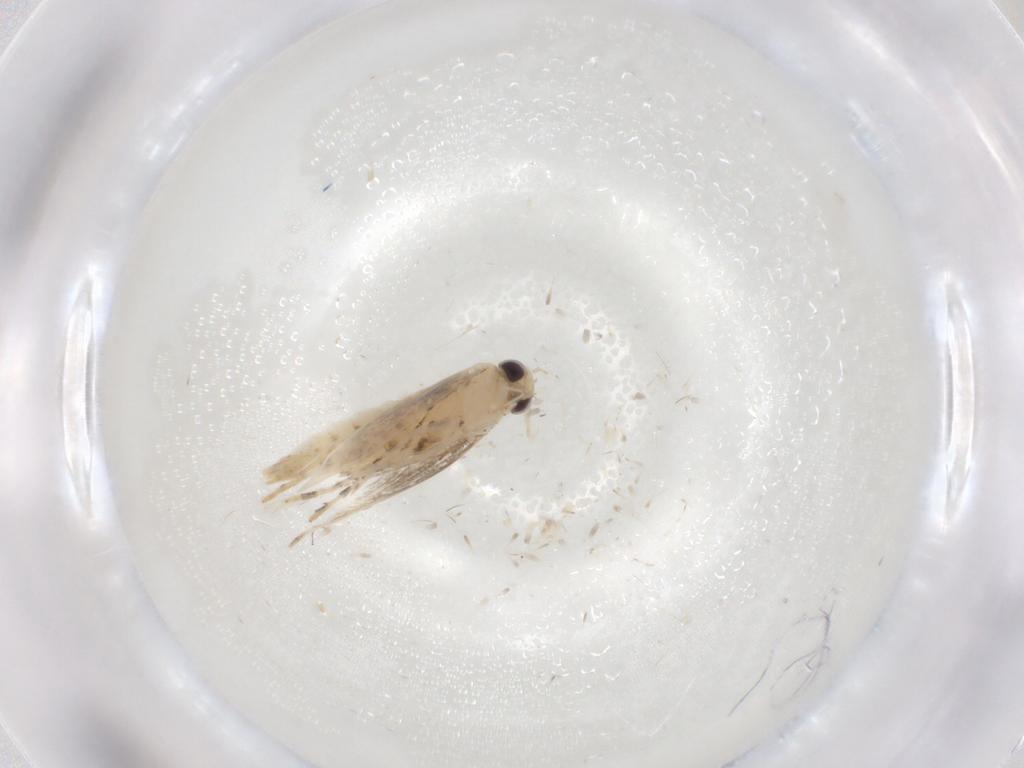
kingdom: Animalia
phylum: Arthropoda
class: Insecta
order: Lepidoptera
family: Gracillariidae
